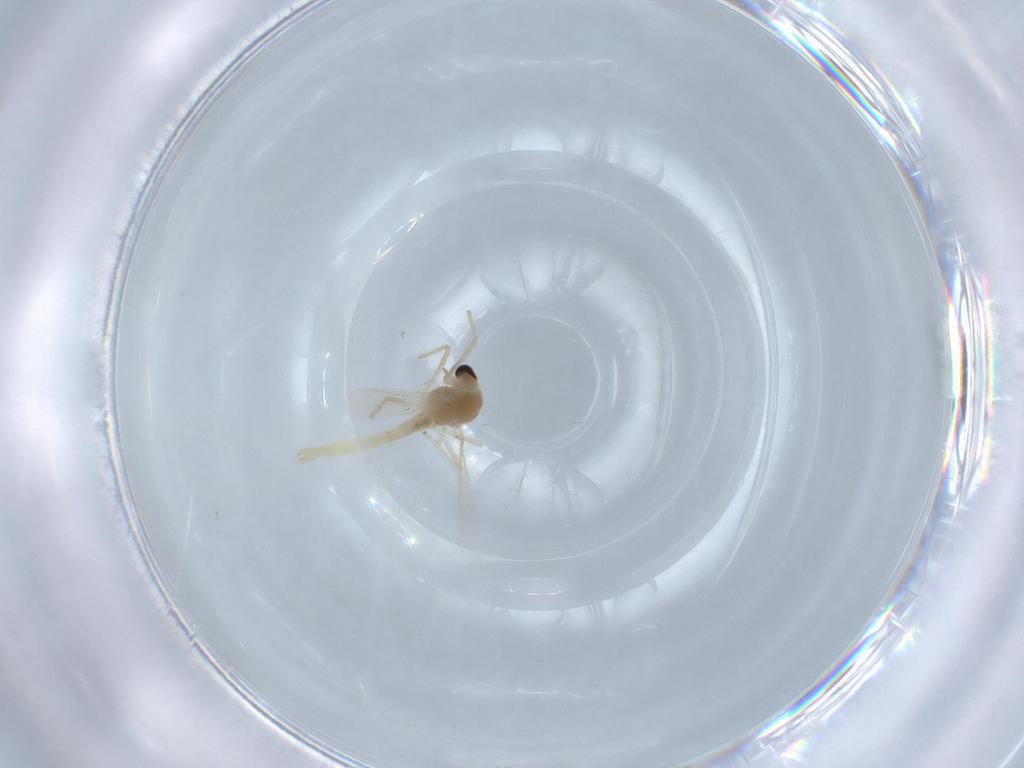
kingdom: Animalia
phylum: Arthropoda
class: Insecta
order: Diptera
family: Chironomidae
